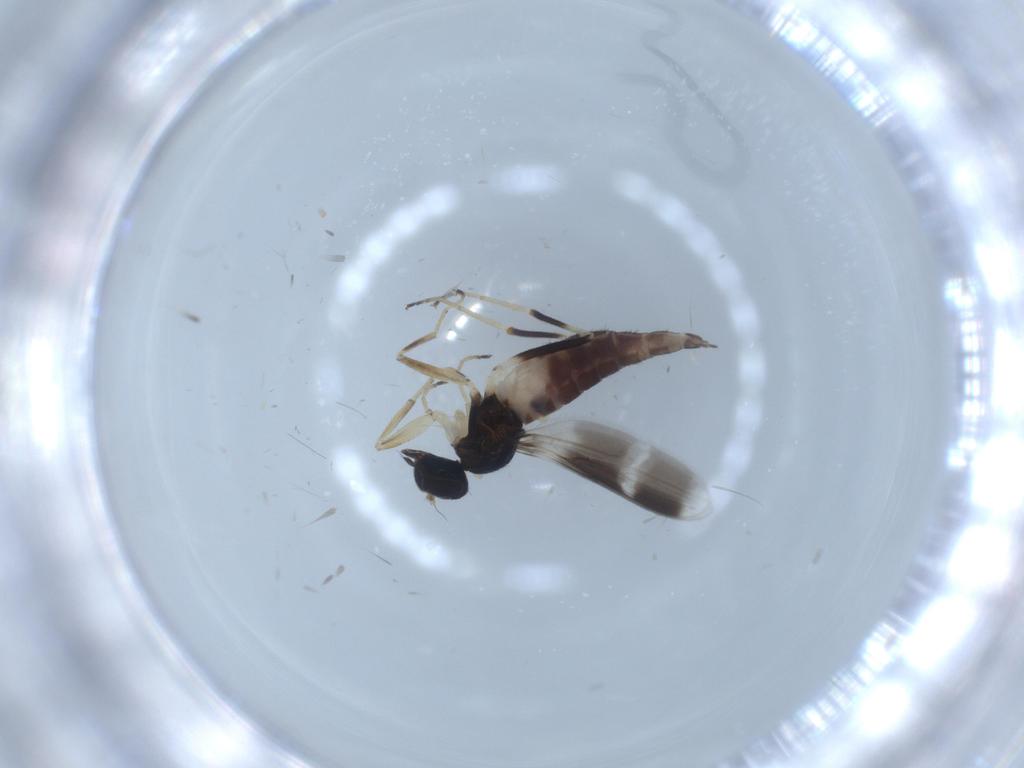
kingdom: Animalia
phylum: Arthropoda
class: Insecta
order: Diptera
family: Hybotidae
